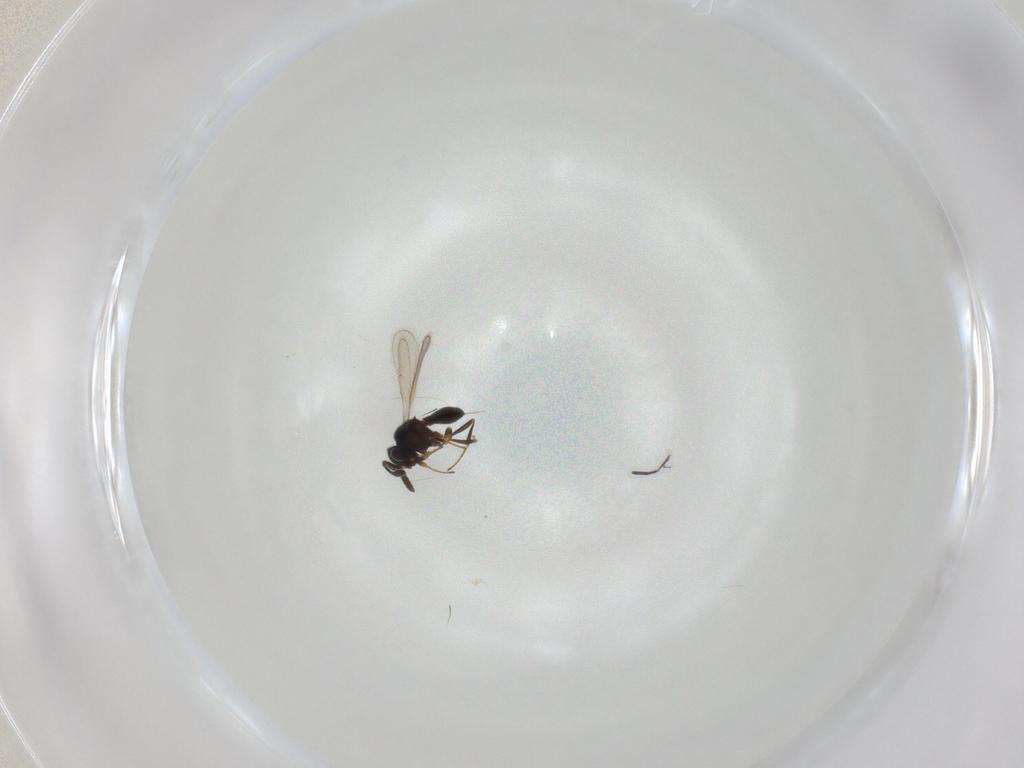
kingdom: Animalia
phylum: Arthropoda
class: Insecta
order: Hymenoptera
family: Scelionidae
